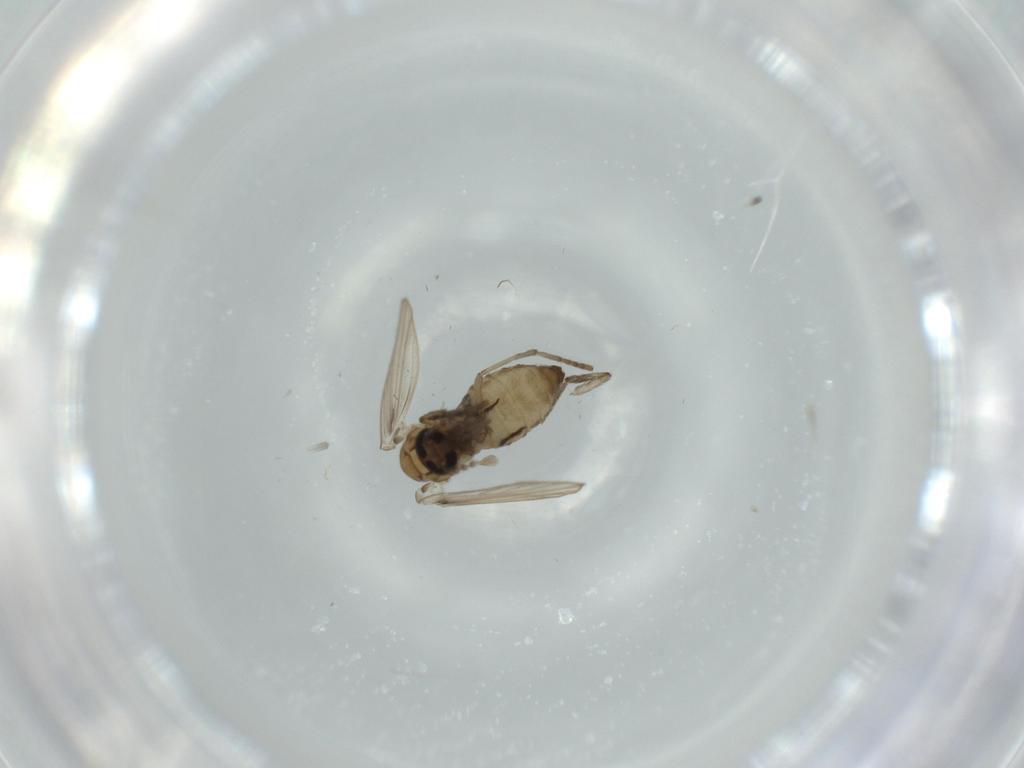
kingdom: Animalia
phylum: Arthropoda
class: Insecta
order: Diptera
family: Psychodidae
